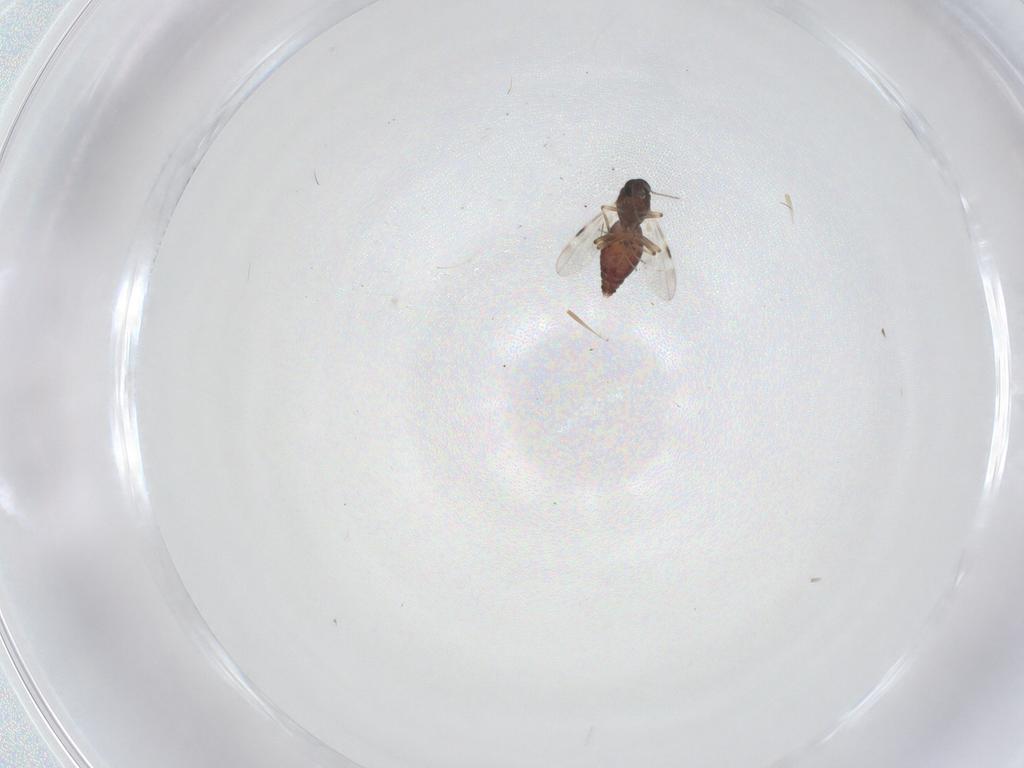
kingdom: Animalia
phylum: Arthropoda
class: Insecta
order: Diptera
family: Phoridae
